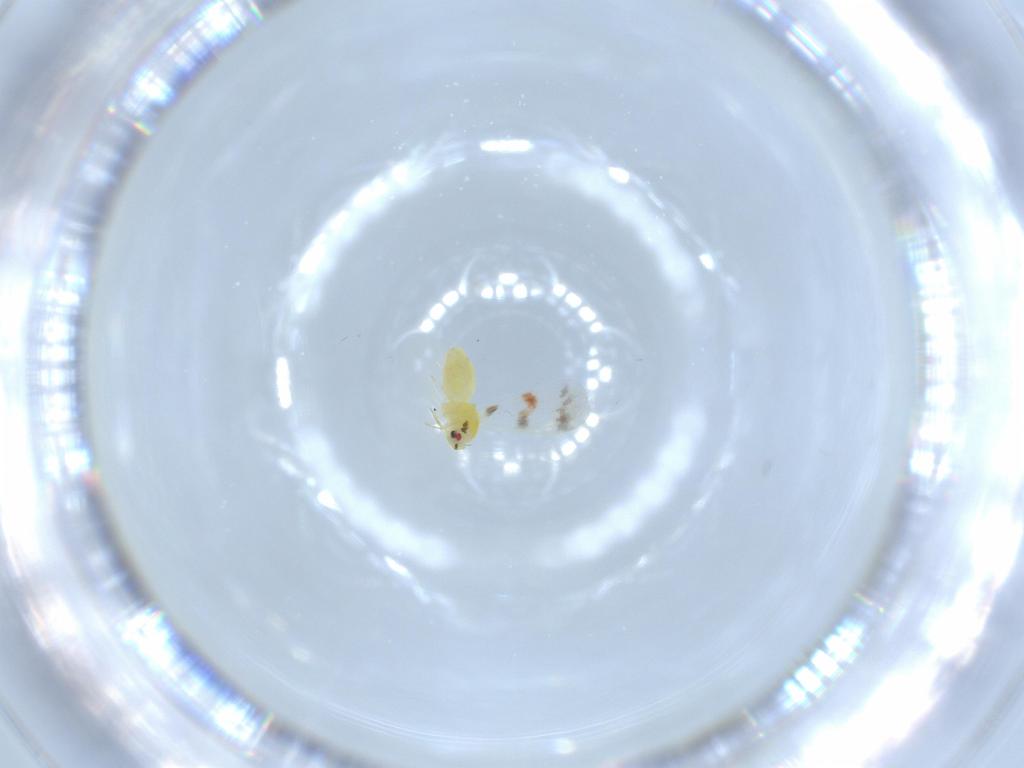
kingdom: Animalia
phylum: Arthropoda
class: Insecta
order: Hemiptera
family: Aleyrodidae
